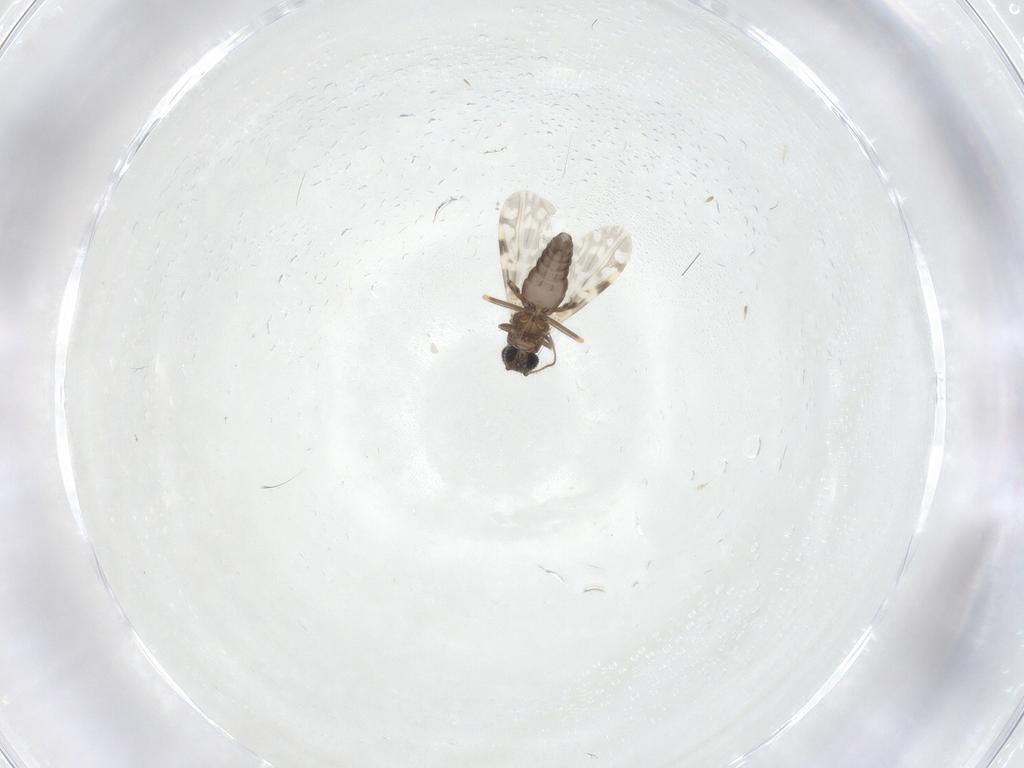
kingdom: Animalia
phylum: Arthropoda
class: Insecta
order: Diptera
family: Ceratopogonidae
